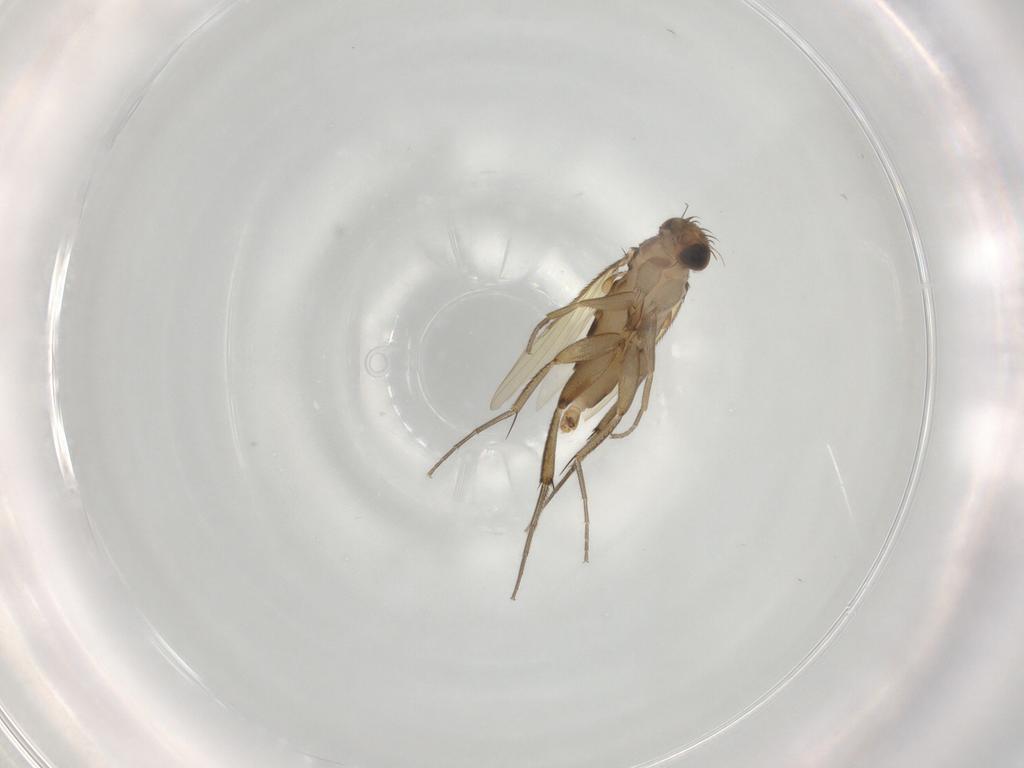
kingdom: Animalia
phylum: Arthropoda
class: Insecta
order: Diptera
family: Phoridae
